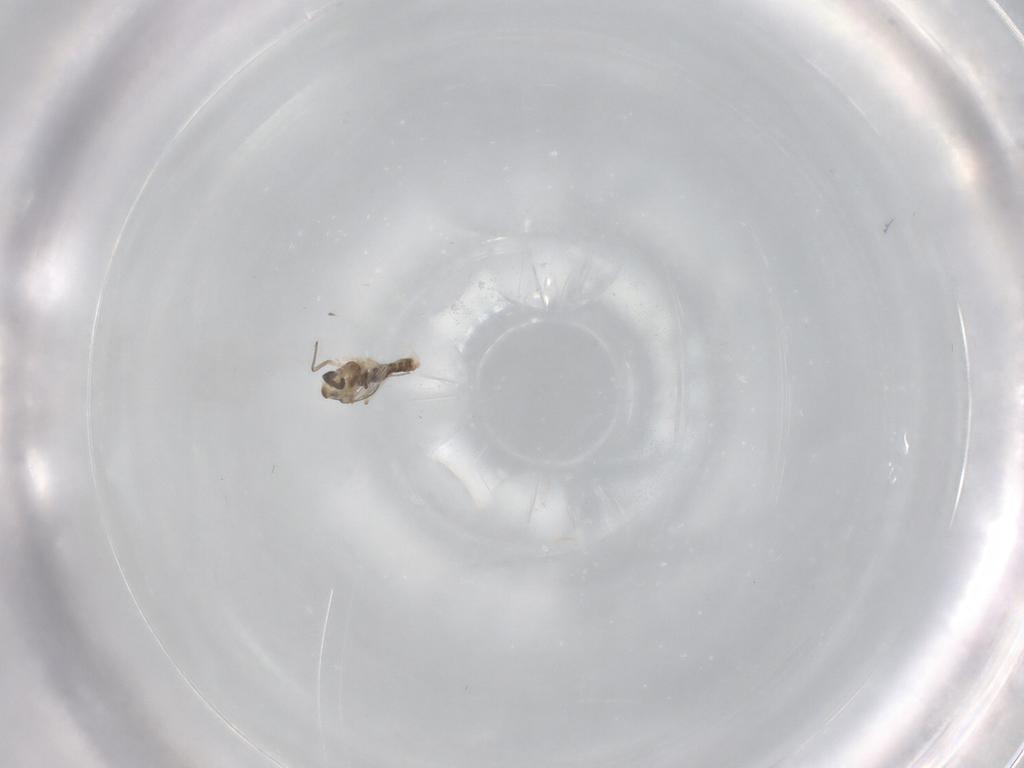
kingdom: Animalia
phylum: Arthropoda
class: Insecta
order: Diptera
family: Chironomidae
